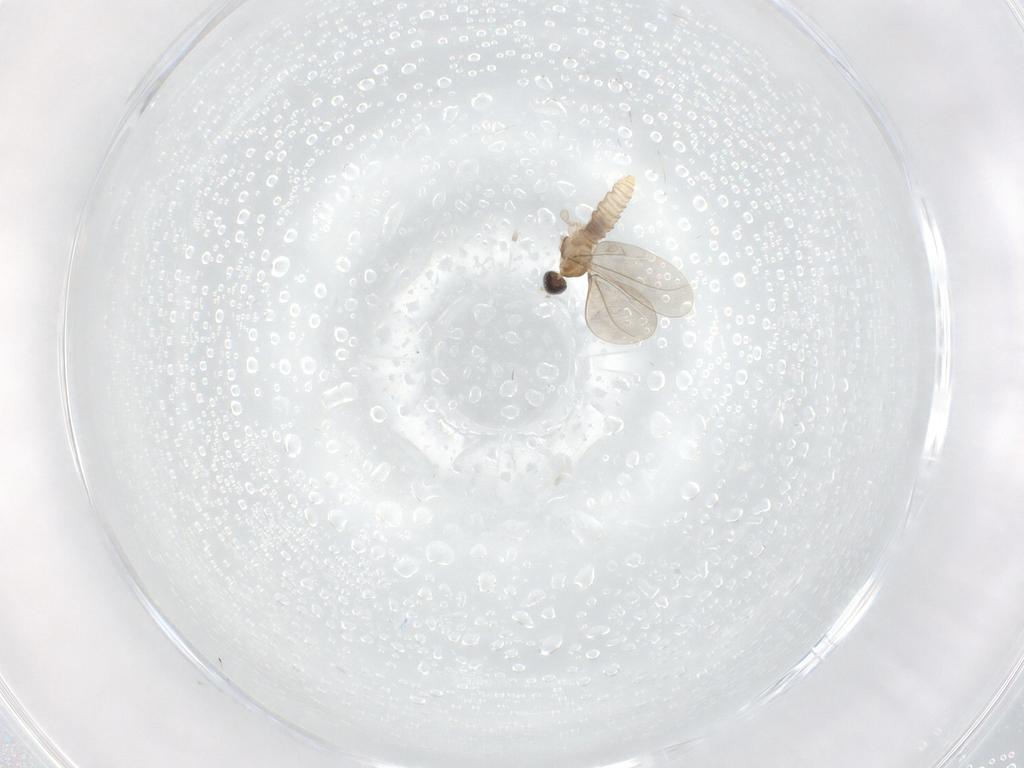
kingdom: Animalia
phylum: Arthropoda
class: Insecta
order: Diptera
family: Cecidomyiidae
